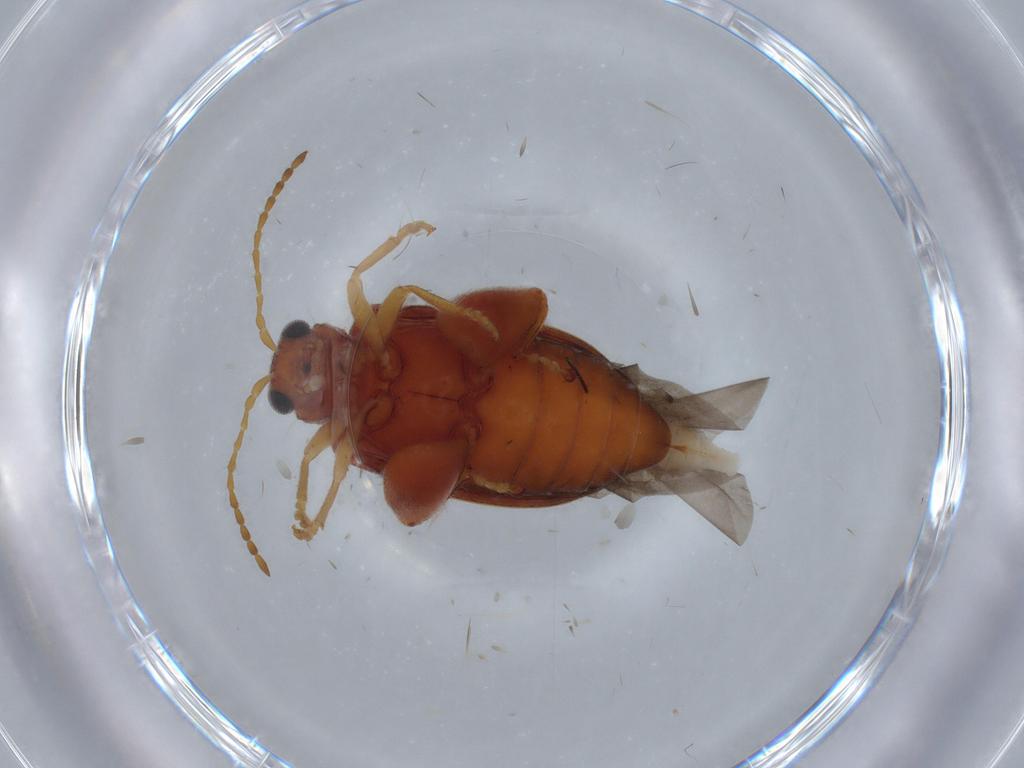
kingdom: Animalia
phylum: Arthropoda
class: Insecta
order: Coleoptera
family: Chrysomelidae
